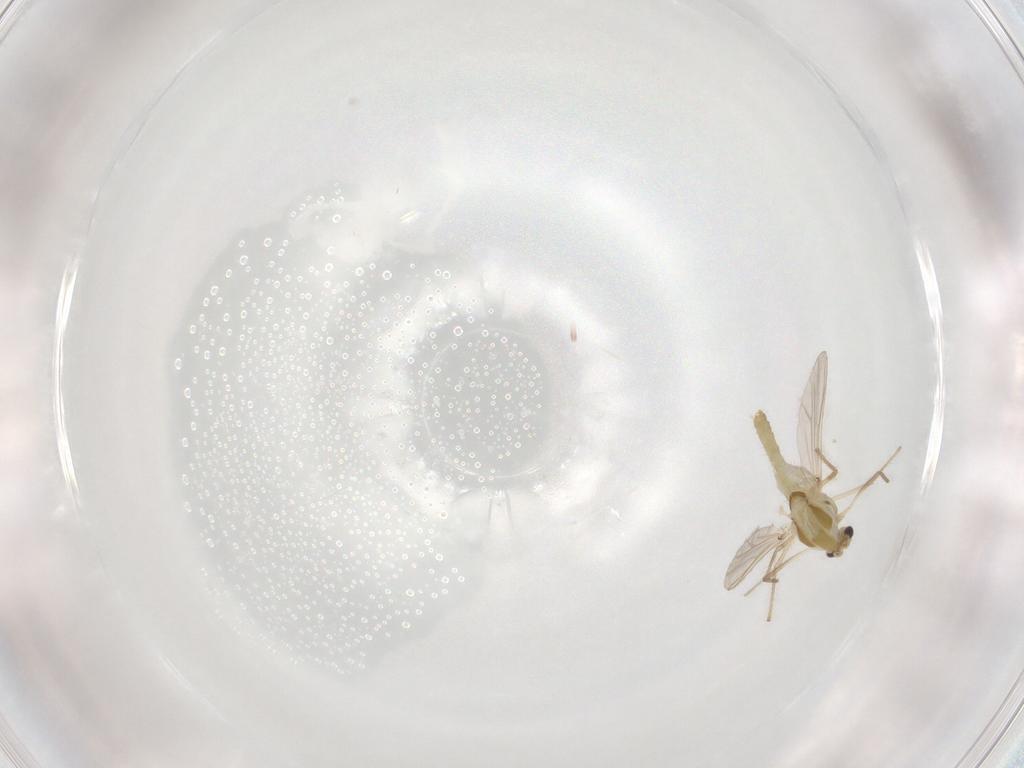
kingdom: Animalia
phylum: Arthropoda
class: Insecta
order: Diptera
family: Chironomidae
